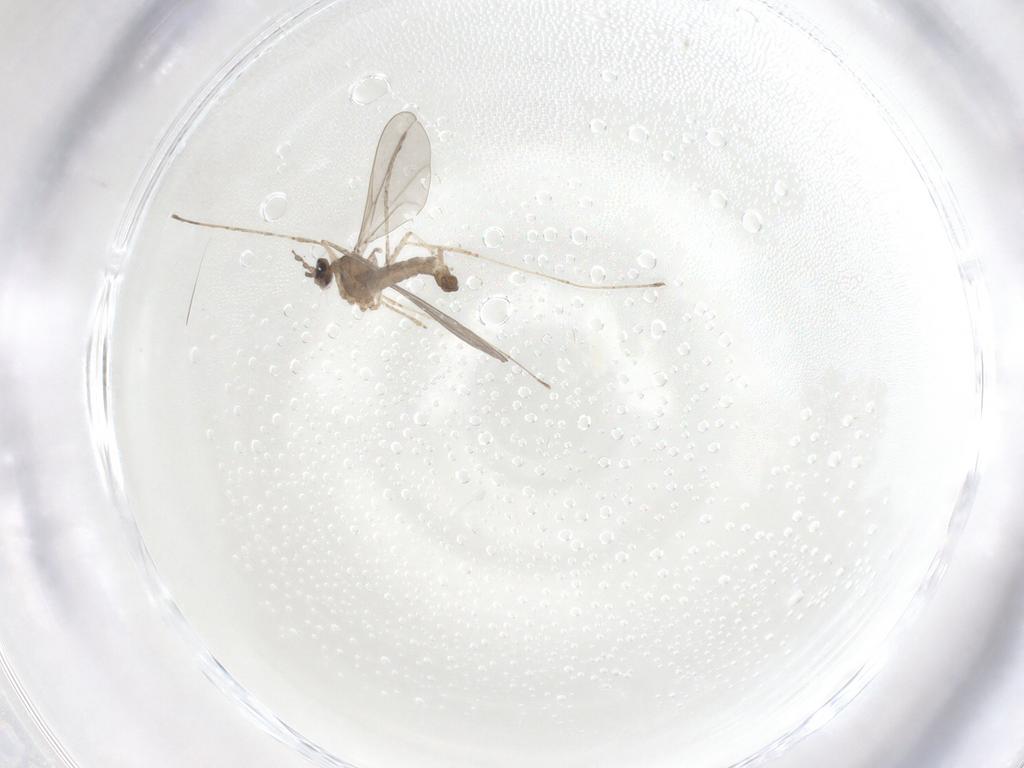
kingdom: Animalia
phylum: Arthropoda
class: Insecta
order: Diptera
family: Cecidomyiidae
